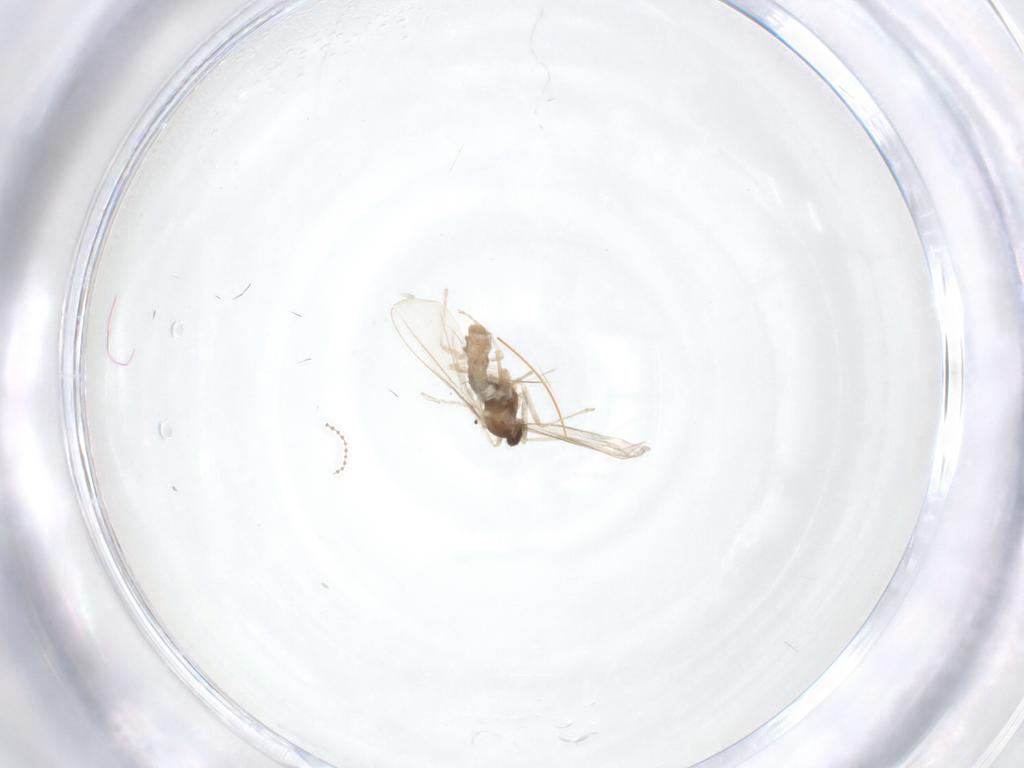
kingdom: Animalia
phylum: Arthropoda
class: Insecta
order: Diptera
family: Cecidomyiidae
